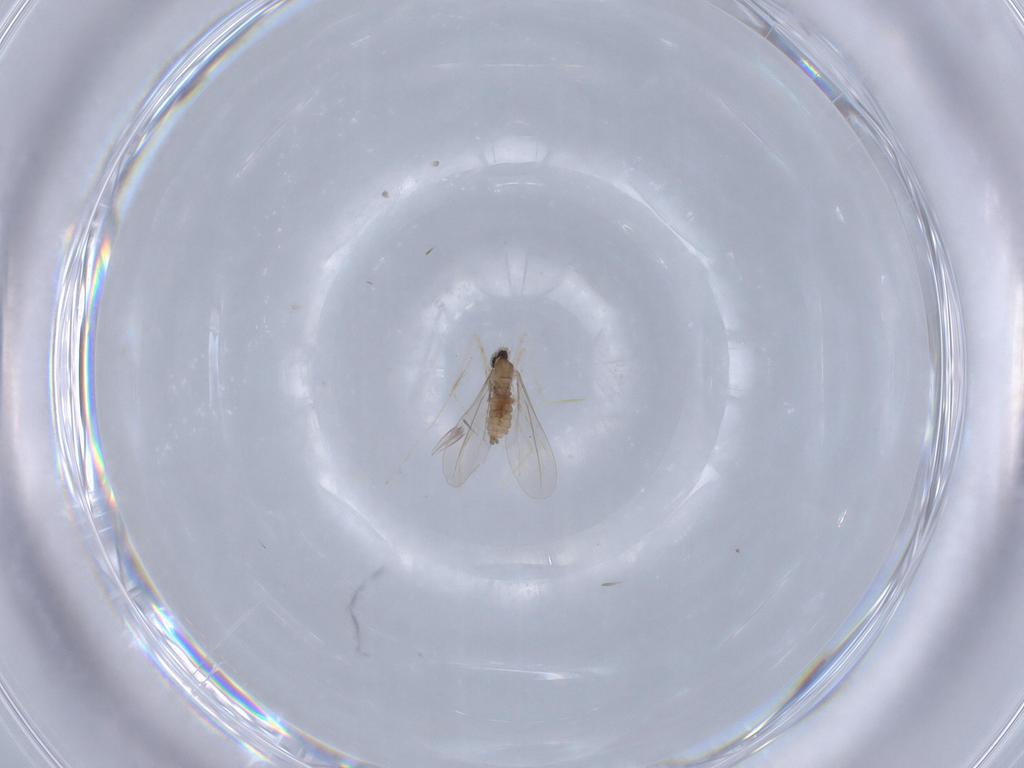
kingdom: Animalia
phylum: Arthropoda
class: Insecta
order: Diptera
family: Cecidomyiidae
